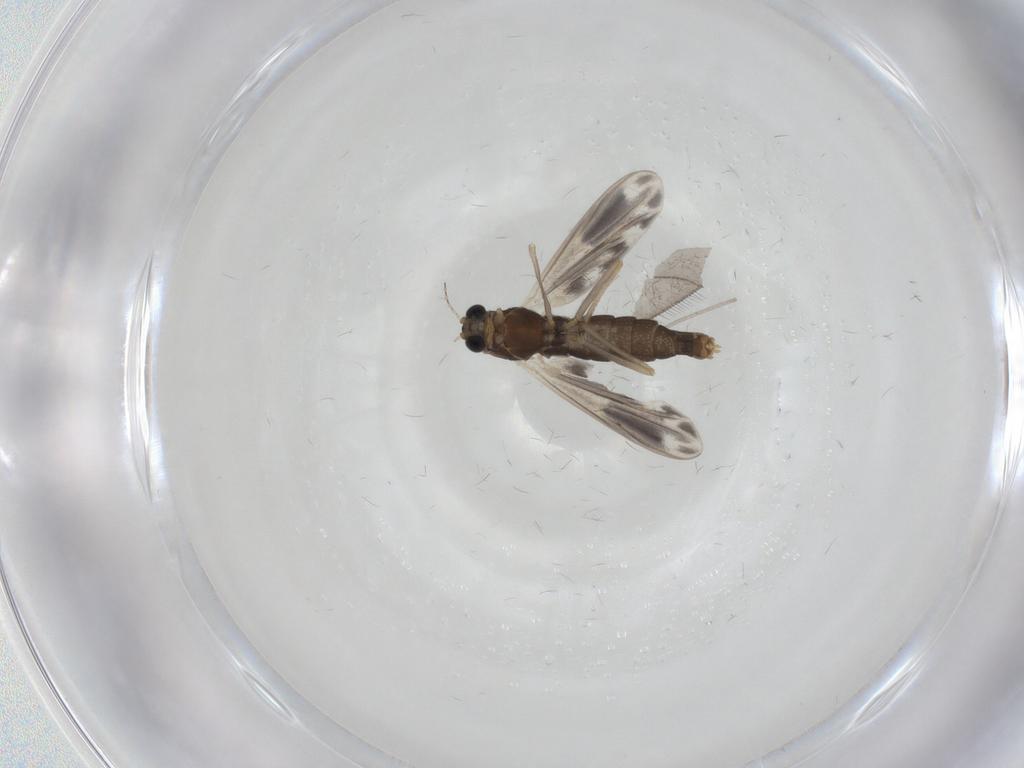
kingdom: Animalia
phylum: Arthropoda
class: Insecta
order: Diptera
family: Chironomidae
